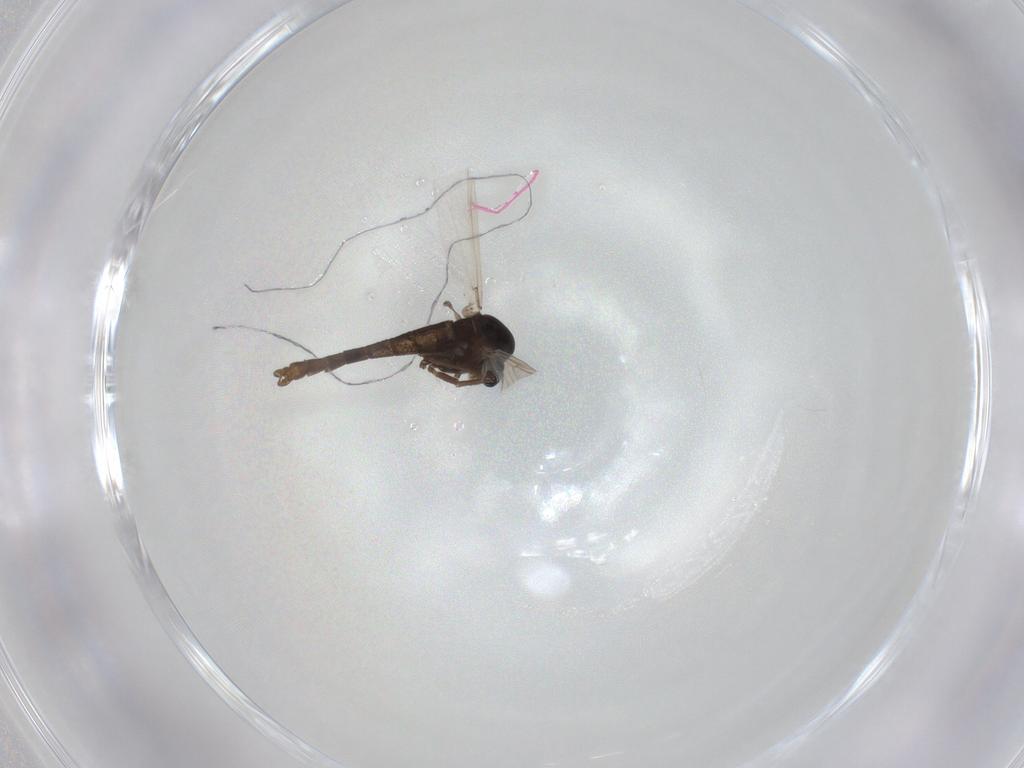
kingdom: Animalia
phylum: Arthropoda
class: Insecta
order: Diptera
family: Chironomidae
